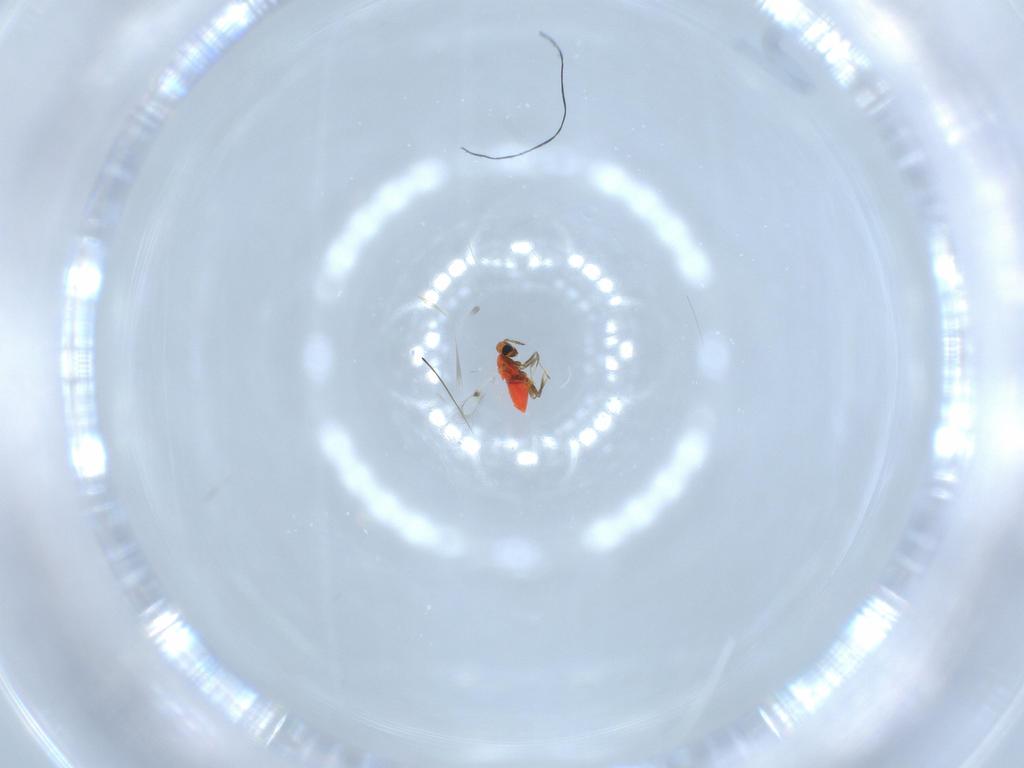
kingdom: Animalia
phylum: Arthropoda
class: Insecta
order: Hymenoptera
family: Trichogrammatidae
